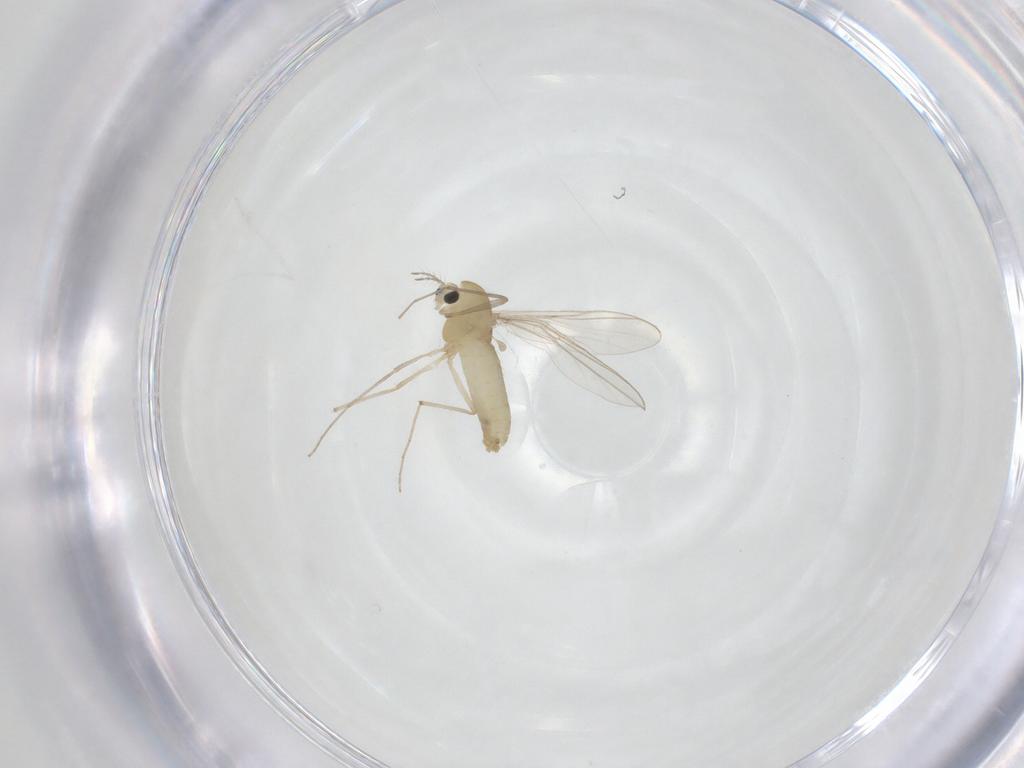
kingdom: Animalia
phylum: Arthropoda
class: Insecta
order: Diptera
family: Chironomidae
